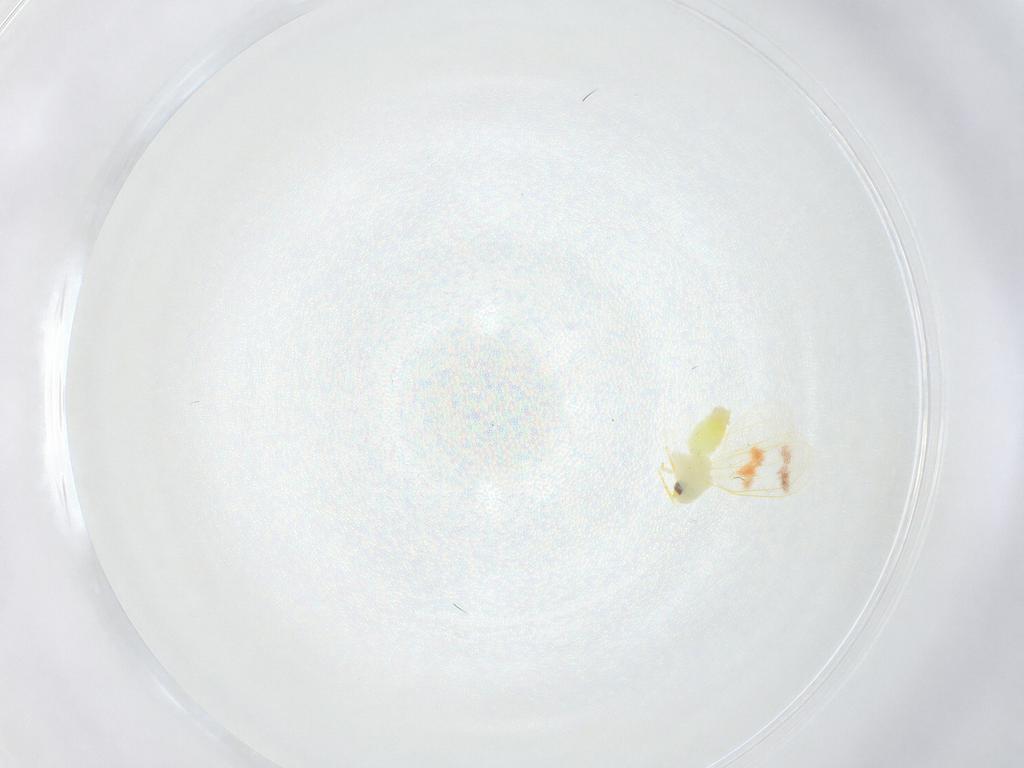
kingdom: Animalia
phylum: Arthropoda
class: Insecta
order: Hemiptera
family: Aleyrodidae
